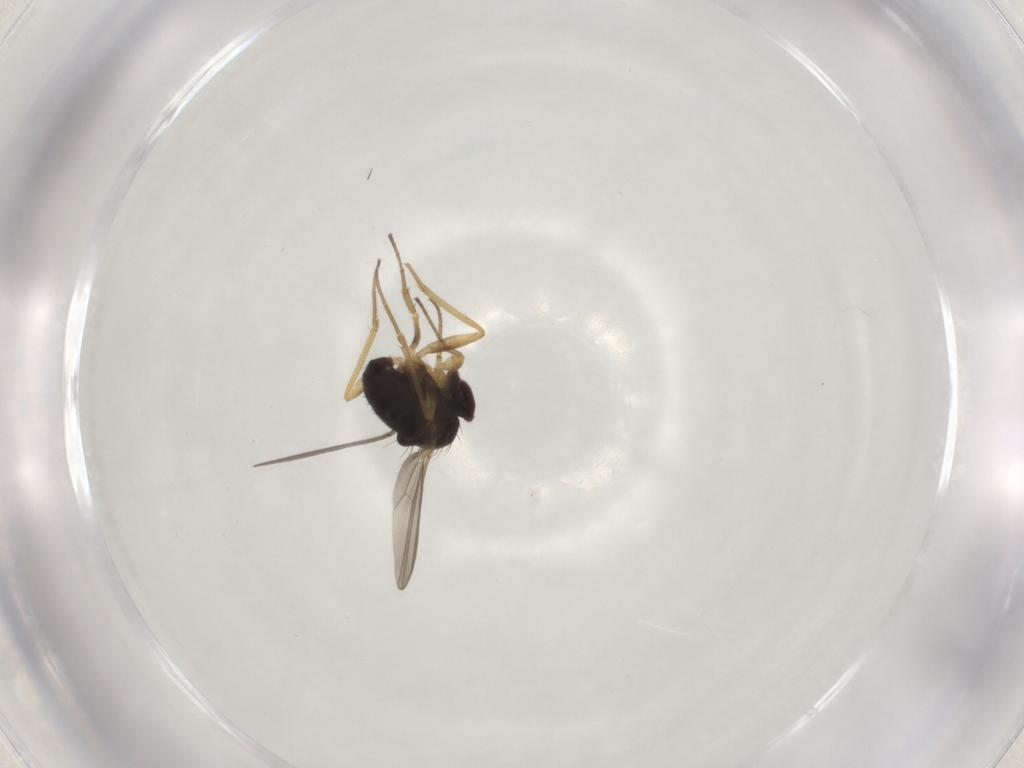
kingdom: Animalia
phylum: Arthropoda
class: Insecta
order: Diptera
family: Dolichopodidae
